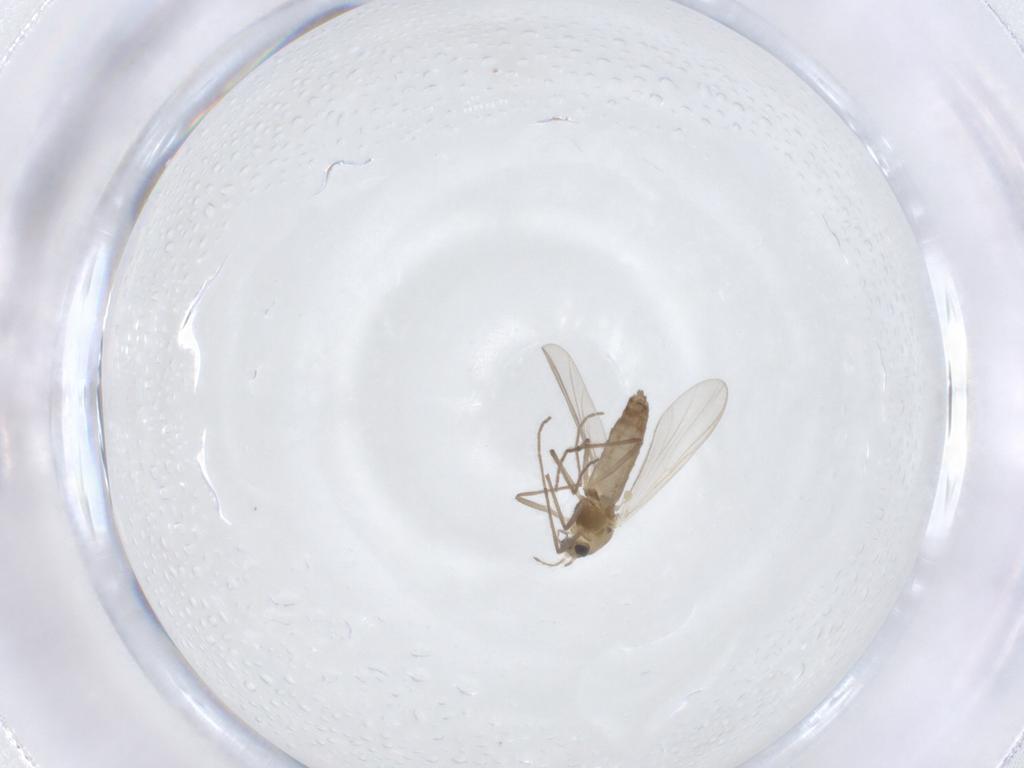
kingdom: Animalia
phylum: Arthropoda
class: Insecta
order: Diptera
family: Chironomidae
